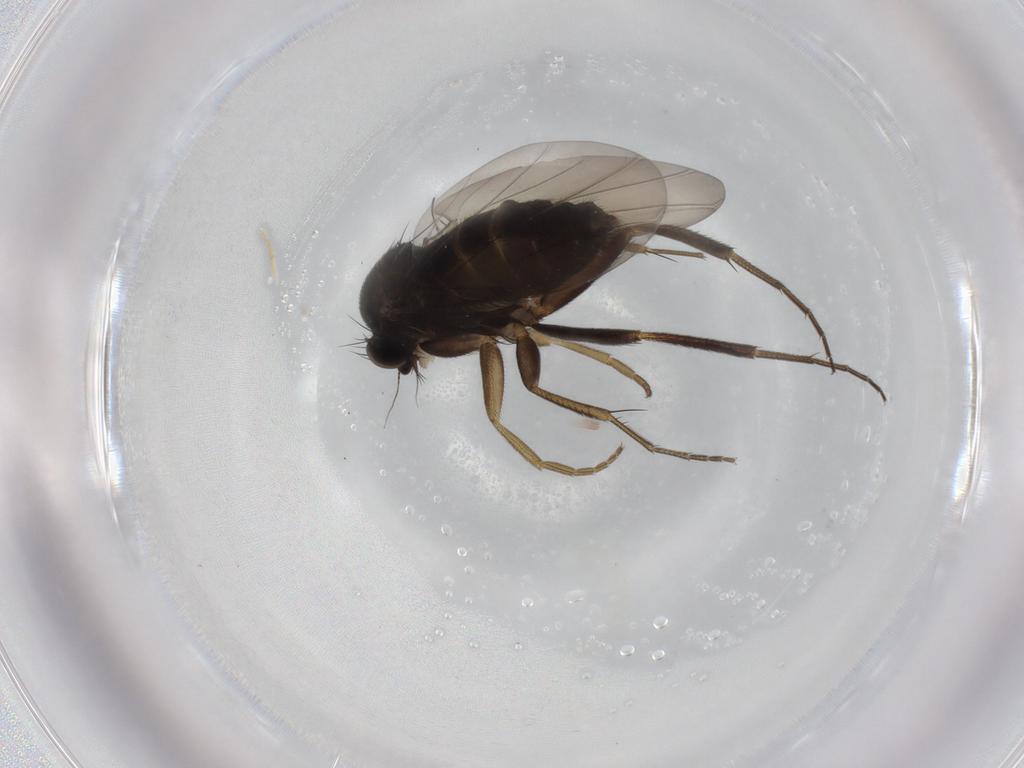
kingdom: Animalia
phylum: Arthropoda
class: Insecta
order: Diptera
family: Phoridae
